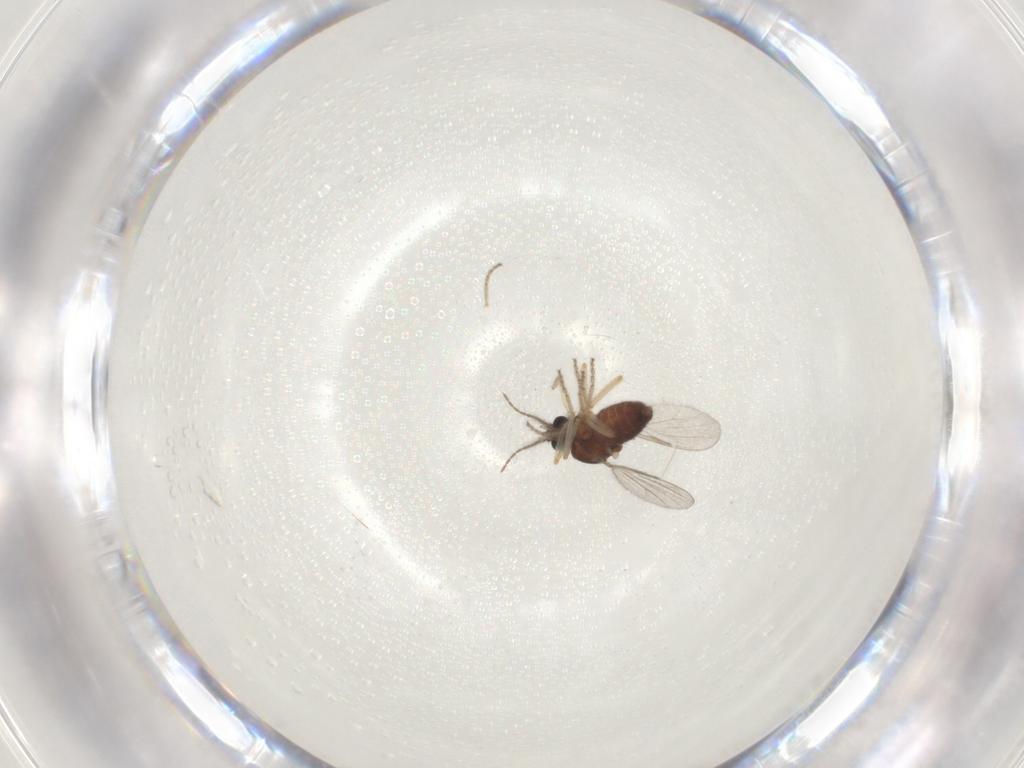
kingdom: Animalia
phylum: Arthropoda
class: Insecta
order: Diptera
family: Ceratopogonidae
